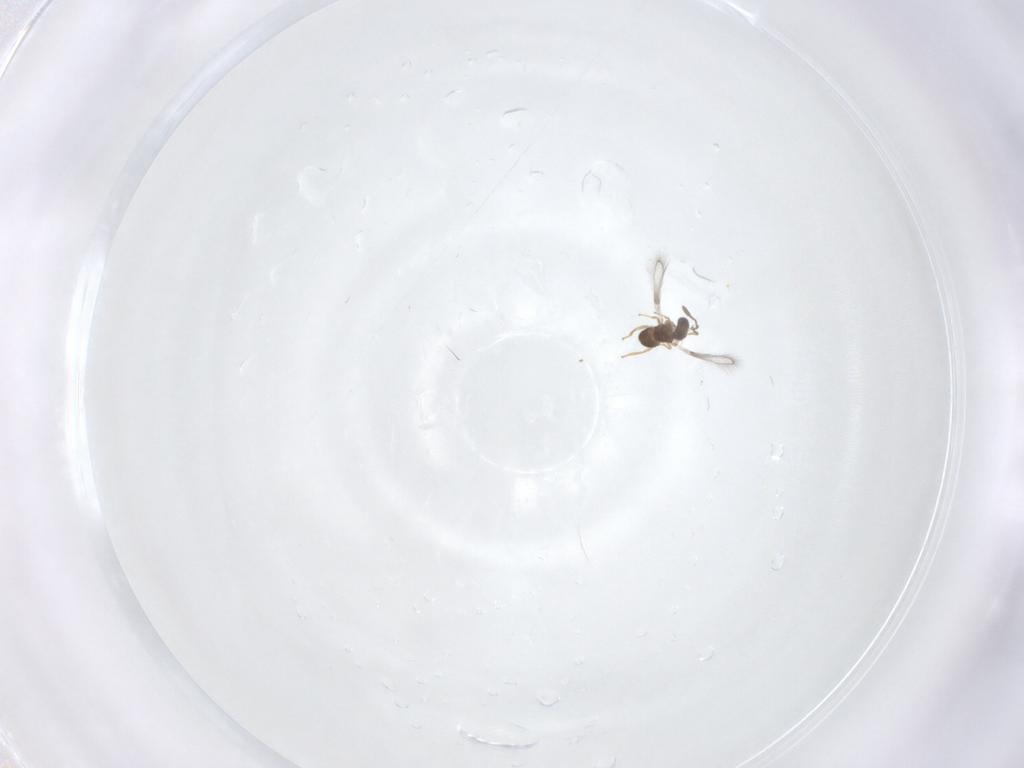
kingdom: Animalia
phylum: Arthropoda
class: Insecta
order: Hymenoptera
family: Mymaridae
